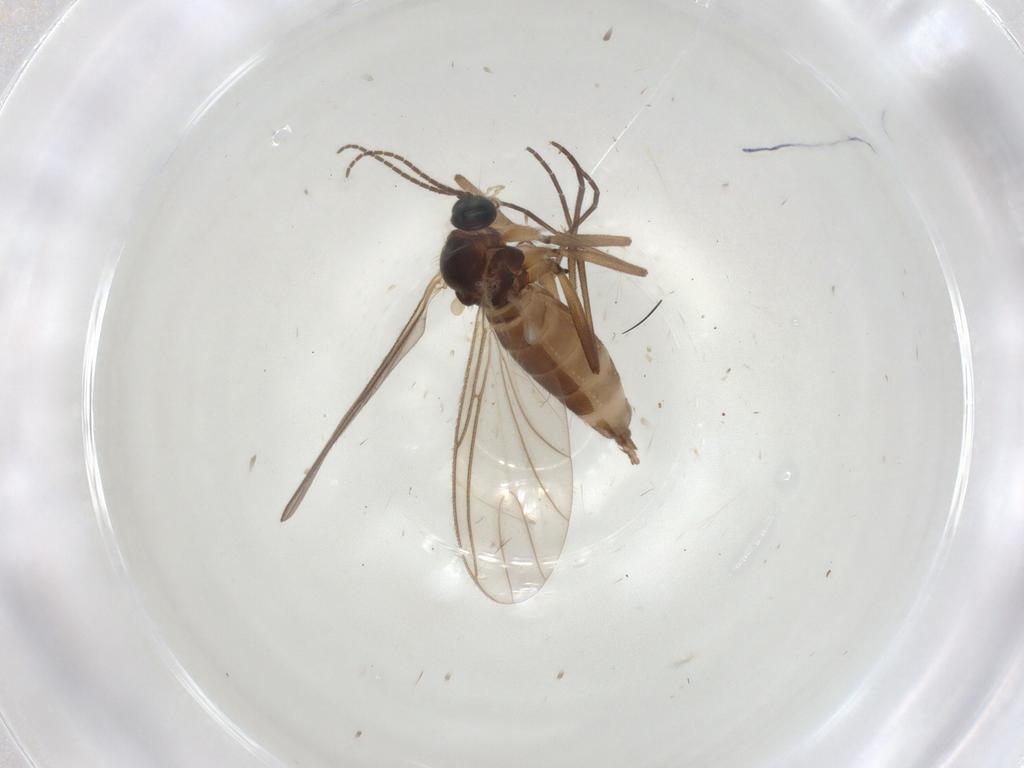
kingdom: Animalia
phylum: Arthropoda
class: Insecta
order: Diptera
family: Sciaridae
